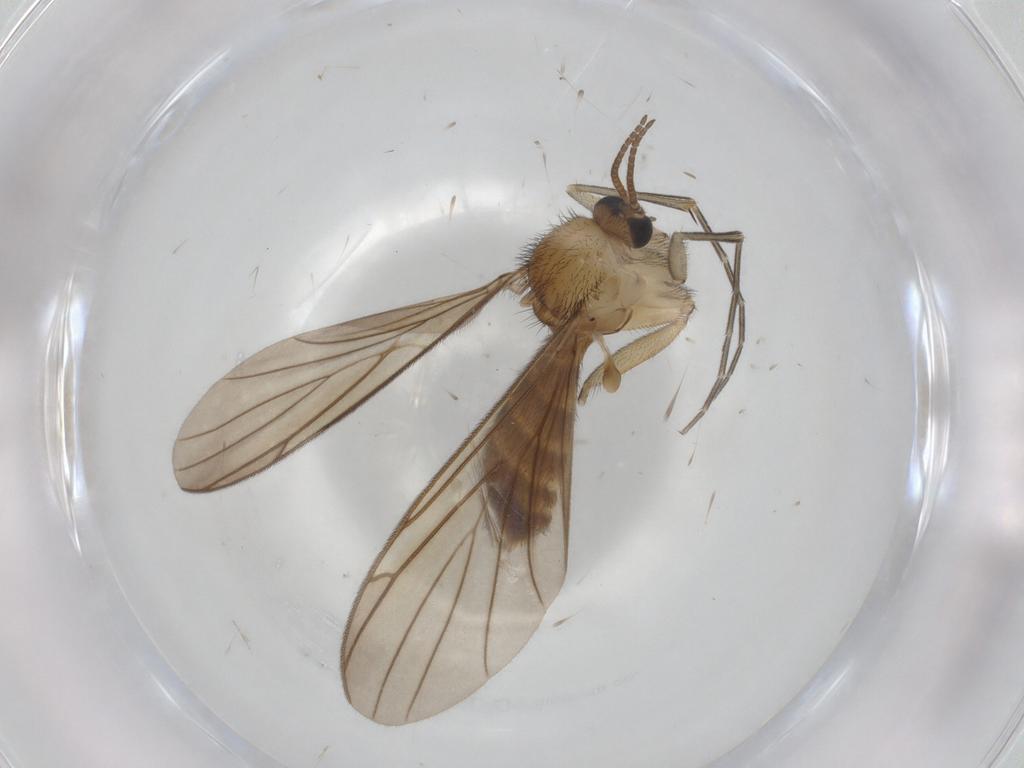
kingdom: Animalia
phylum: Arthropoda
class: Insecta
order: Diptera
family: Keroplatidae
